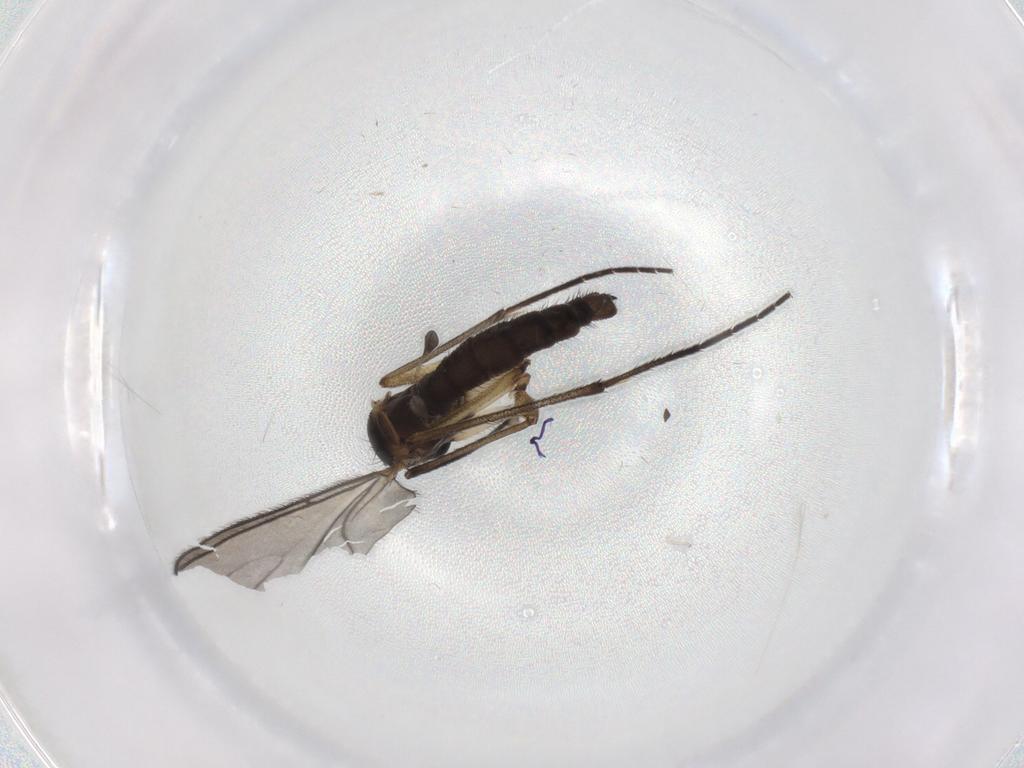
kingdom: Animalia
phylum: Arthropoda
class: Insecta
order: Diptera
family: Sciaridae
